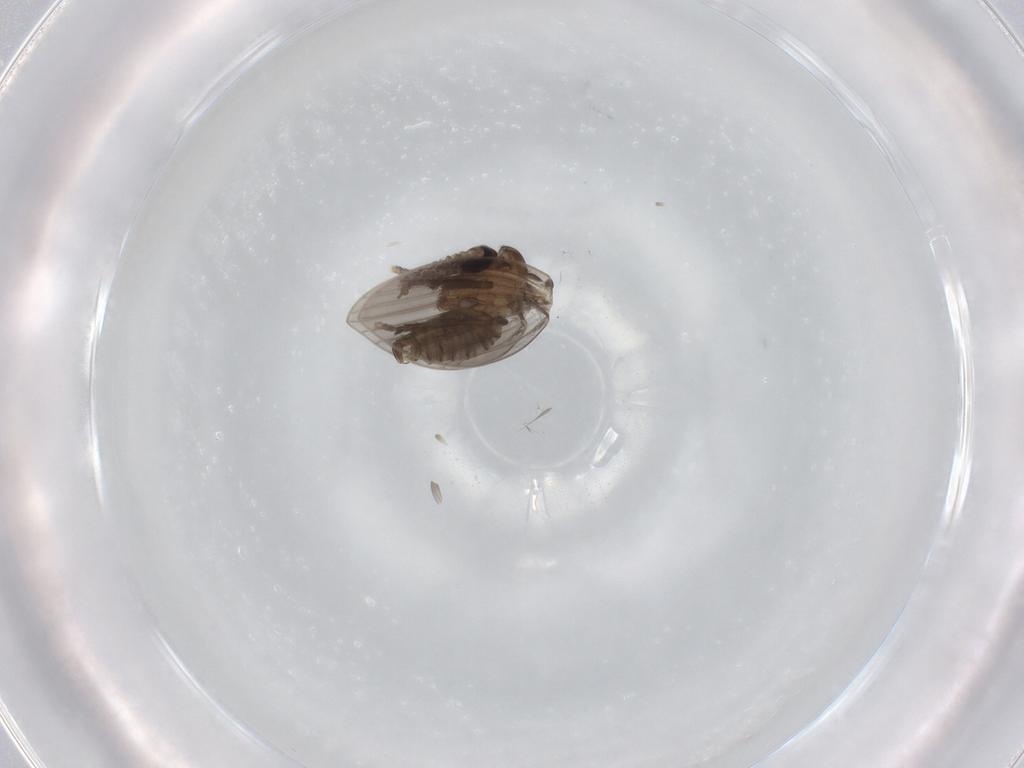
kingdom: Animalia
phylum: Arthropoda
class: Insecta
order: Diptera
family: Psychodidae
